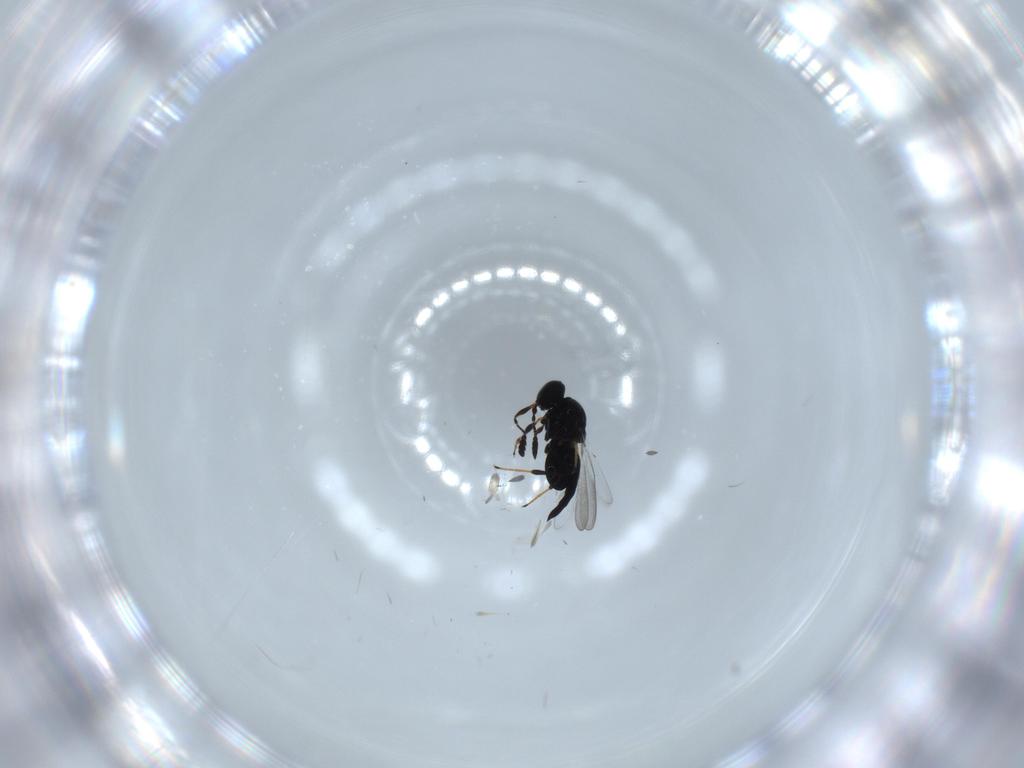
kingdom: Animalia
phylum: Arthropoda
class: Insecta
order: Hymenoptera
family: Platygastridae
